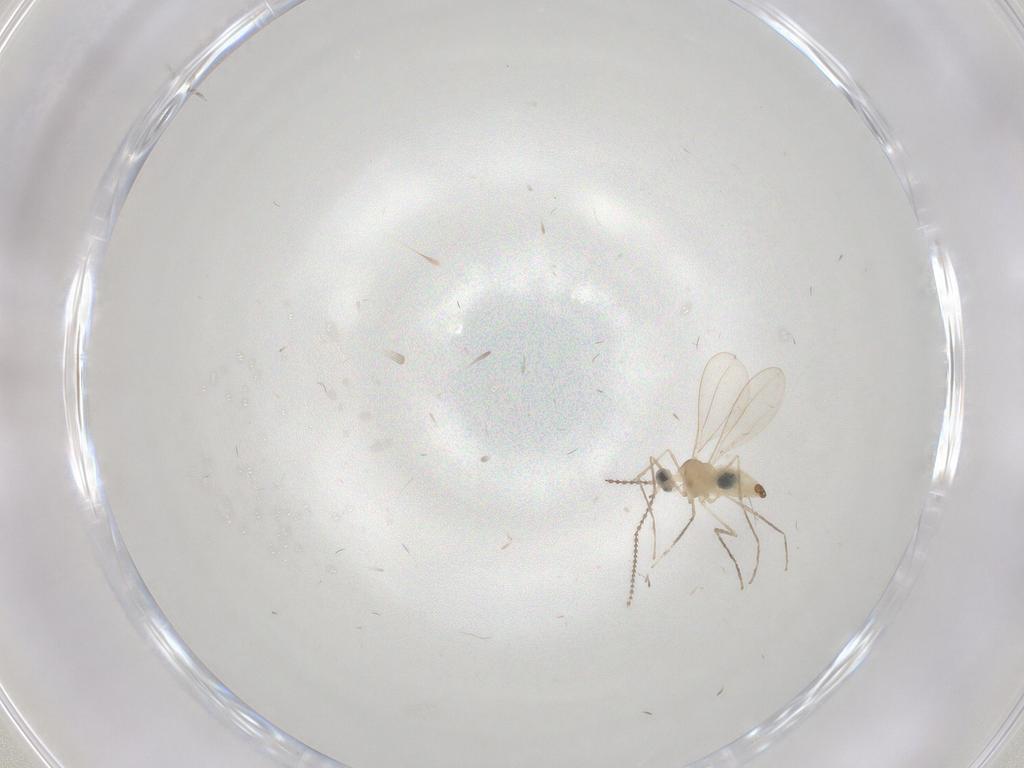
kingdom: Animalia
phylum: Arthropoda
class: Insecta
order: Diptera
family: Cecidomyiidae
